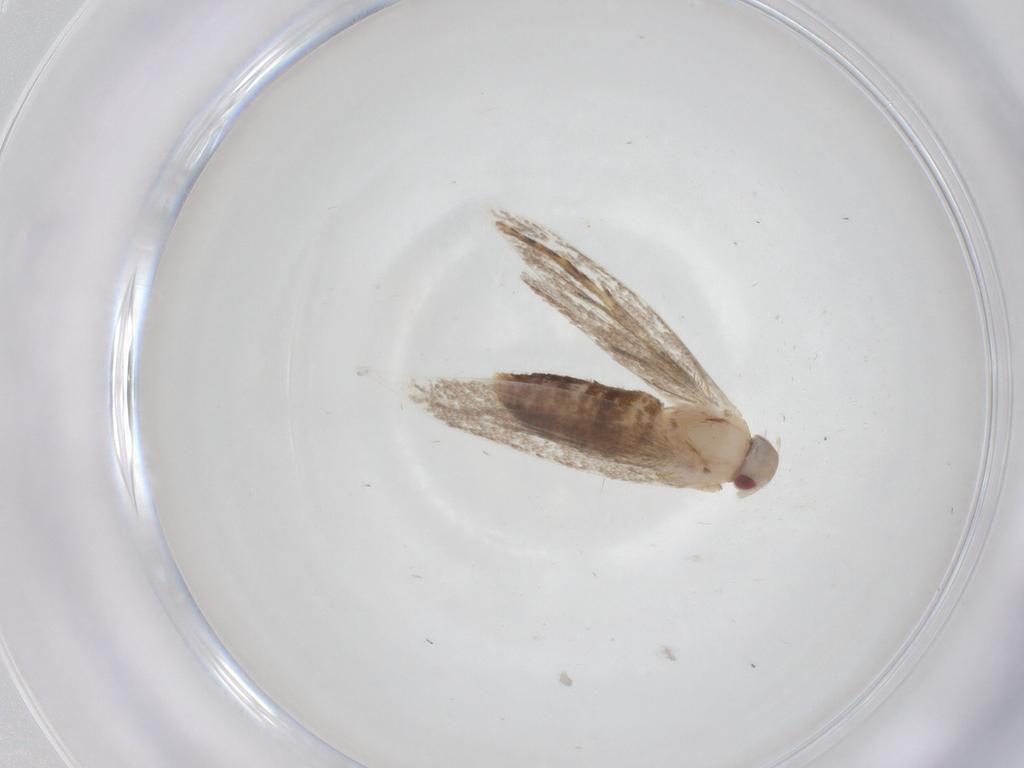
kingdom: Animalia
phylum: Arthropoda
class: Insecta
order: Lepidoptera
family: Cosmopterigidae
